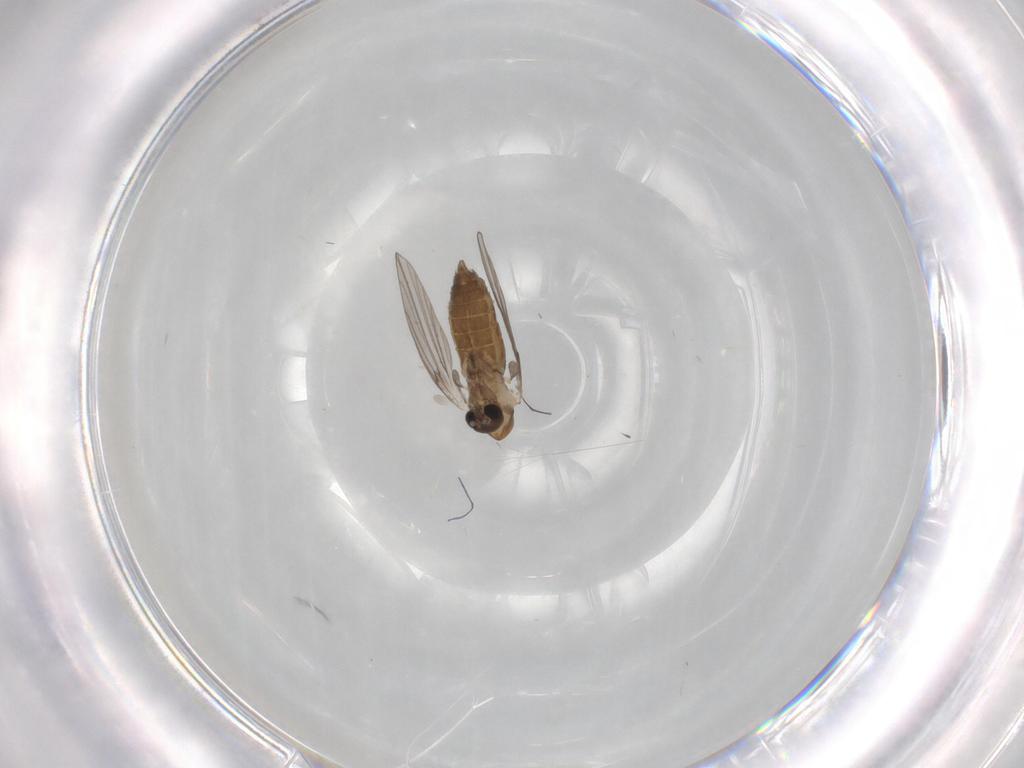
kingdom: Animalia
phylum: Arthropoda
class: Insecta
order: Diptera
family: Psychodidae
